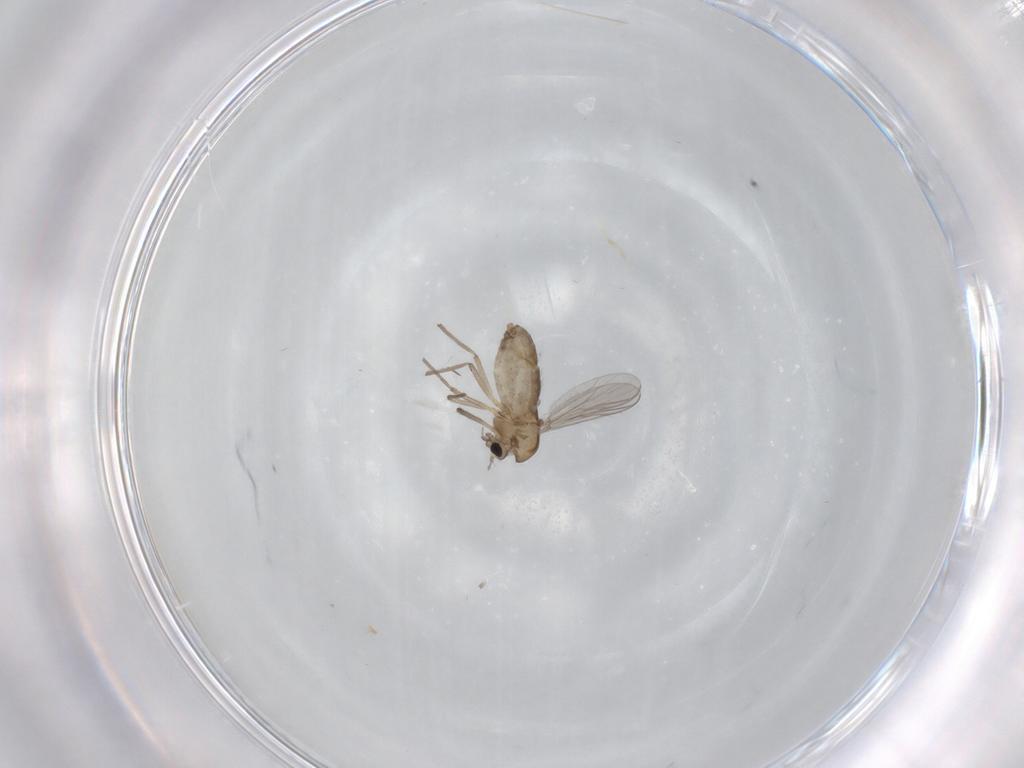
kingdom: Animalia
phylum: Arthropoda
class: Insecta
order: Diptera
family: Chironomidae
